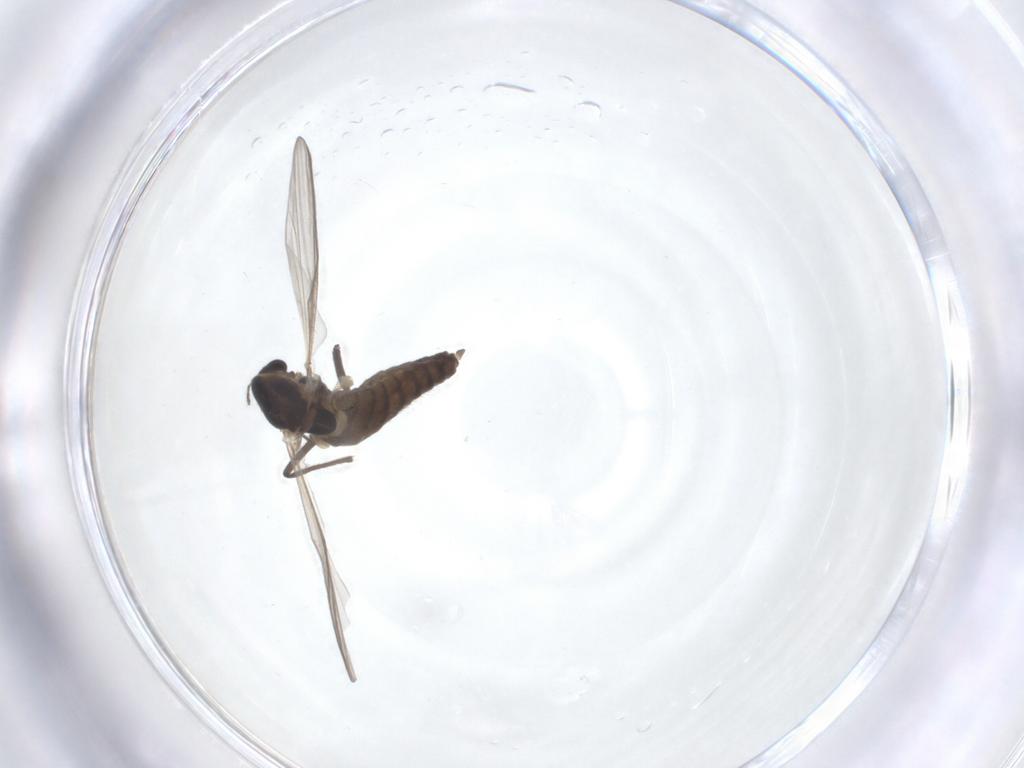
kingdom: Animalia
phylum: Arthropoda
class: Insecta
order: Diptera
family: Chironomidae
